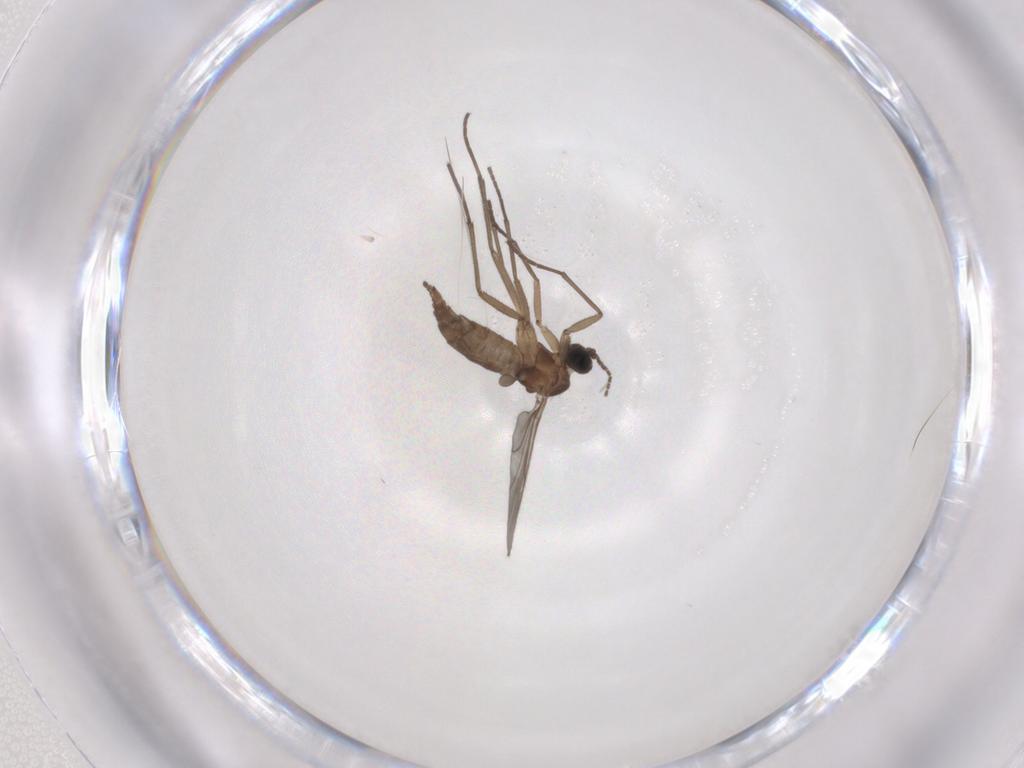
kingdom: Animalia
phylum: Arthropoda
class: Insecta
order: Diptera
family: Sciaridae
